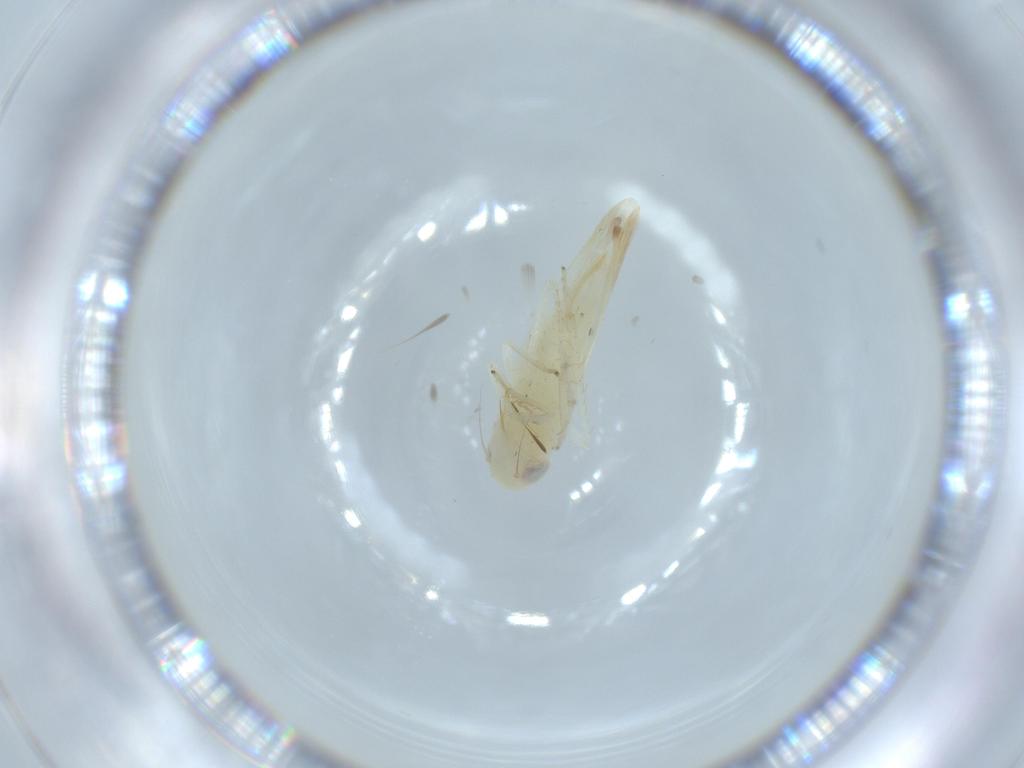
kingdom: Animalia
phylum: Arthropoda
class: Insecta
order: Hemiptera
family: Cicadellidae
